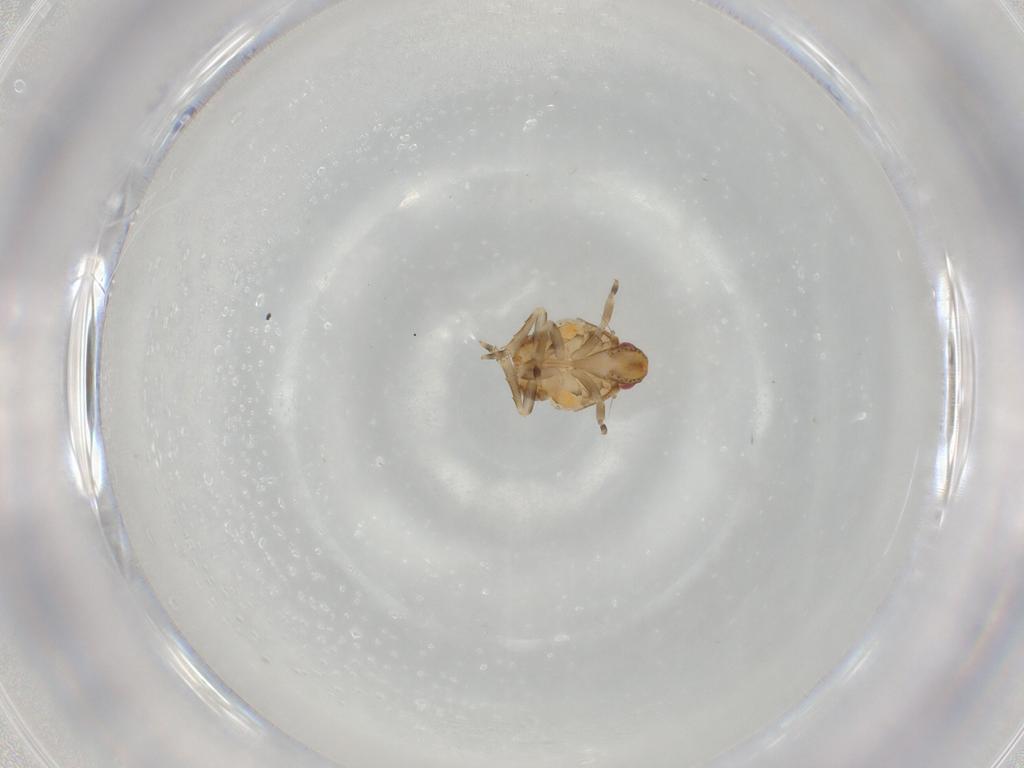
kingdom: Animalia
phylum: Arthropoda
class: Insecta
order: Hemiptera
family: Flatidae
